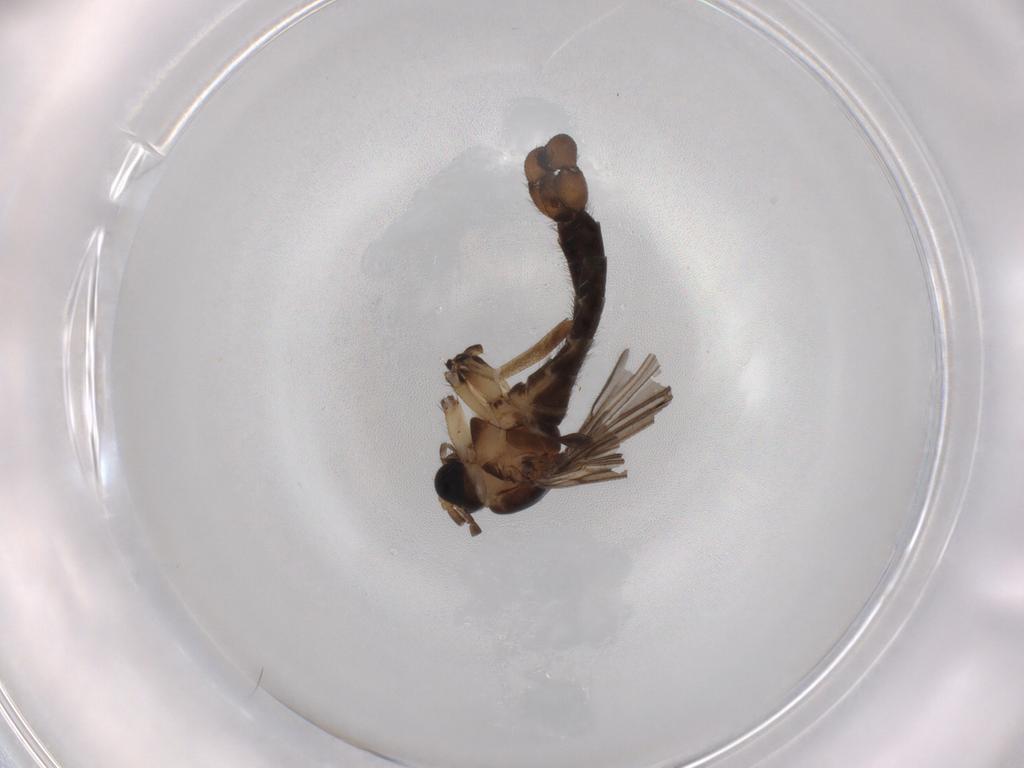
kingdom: Animalia
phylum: Arthropoda
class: Insecta
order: Diptera
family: Sciaridae
